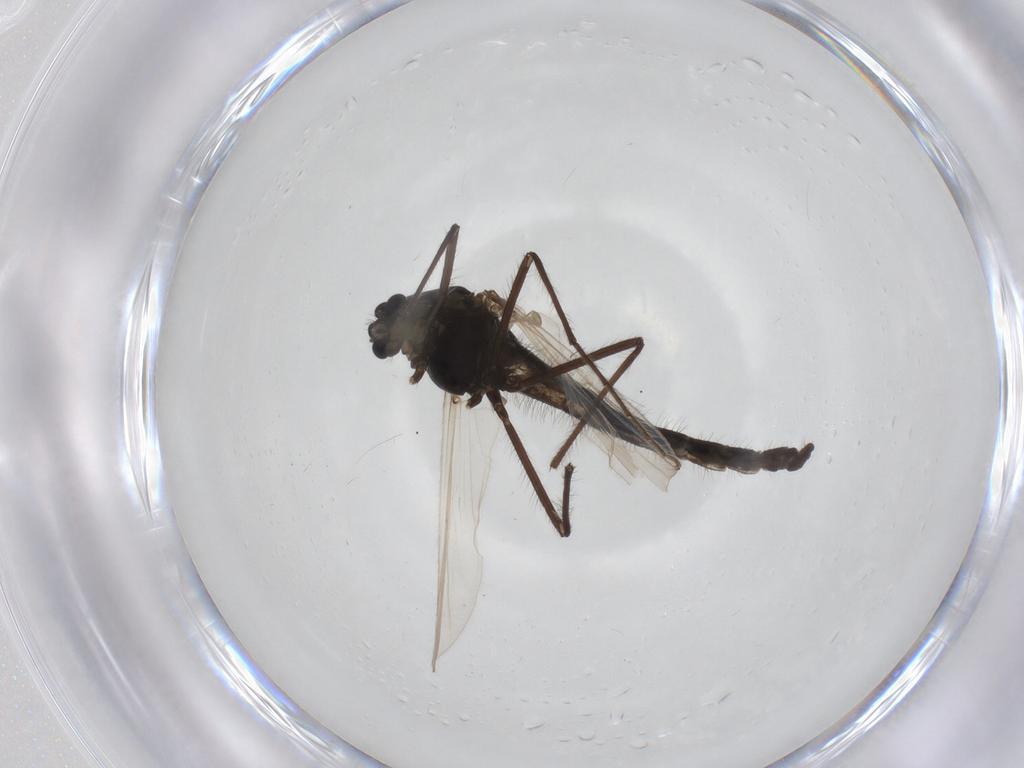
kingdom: Animalia
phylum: Arthropoda
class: Insecta
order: Diptera
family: Chironomidae
